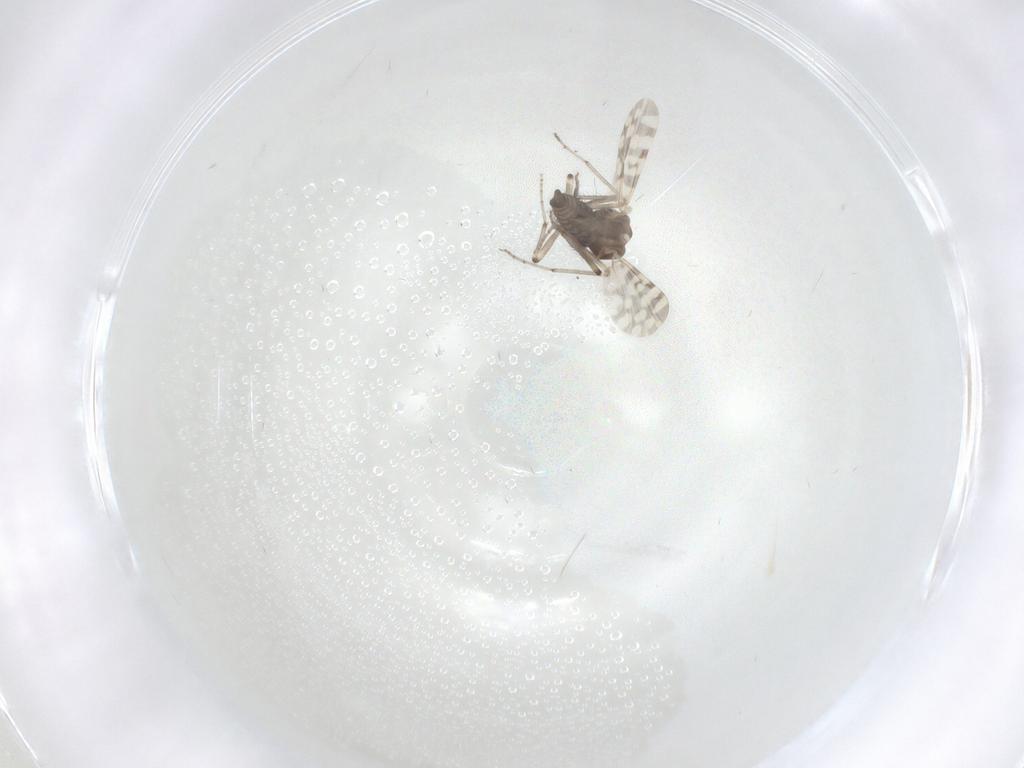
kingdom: Animalia
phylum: Arthropoda
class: Insecta
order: Diptera
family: Sciaridae
